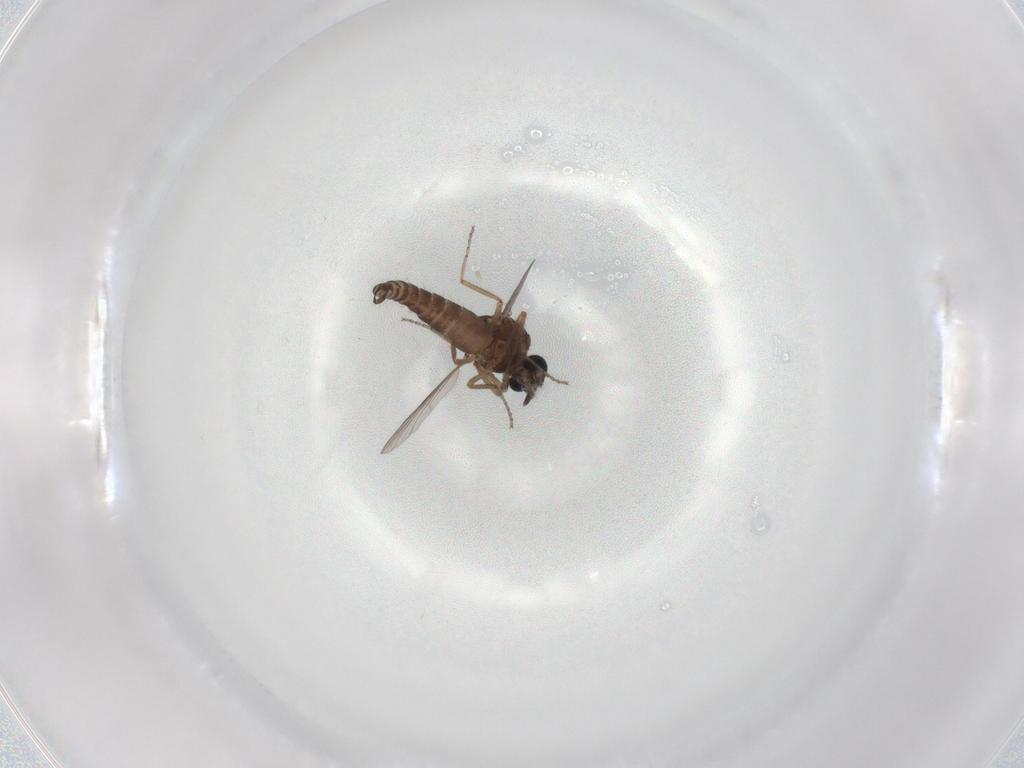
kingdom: Animalia
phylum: Arthropoda
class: Insecta
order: Diptera
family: Ceratopogonidae
